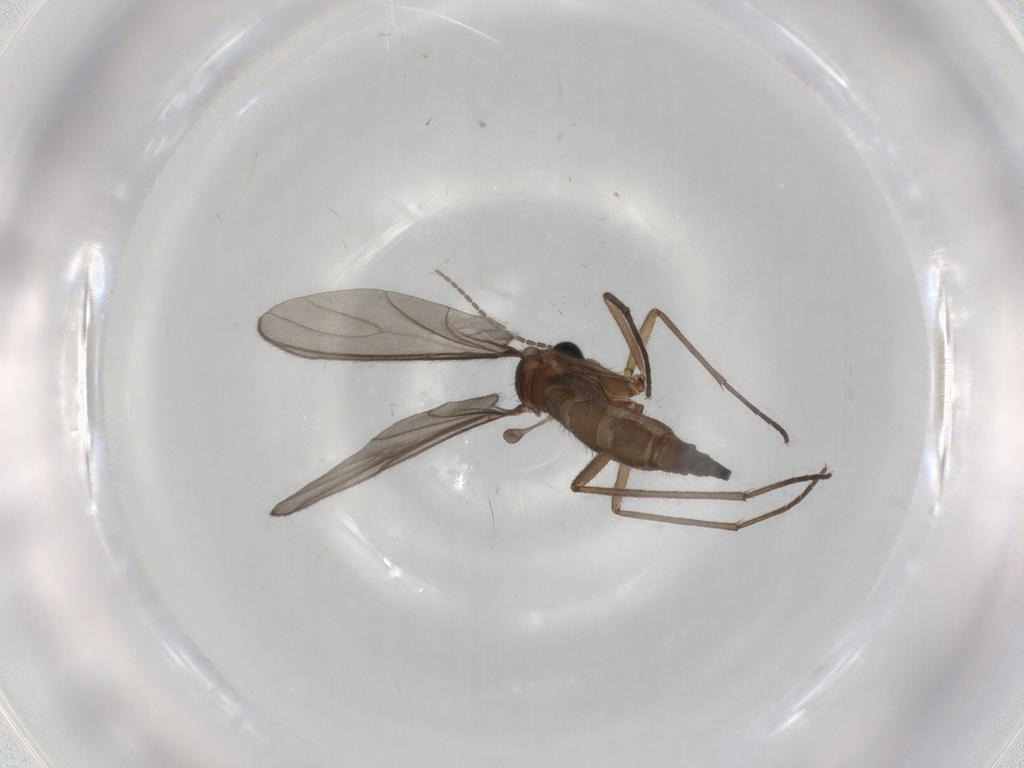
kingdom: Animalia
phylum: Arthropoda
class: Insecta
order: Diptera
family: Sciaridae
